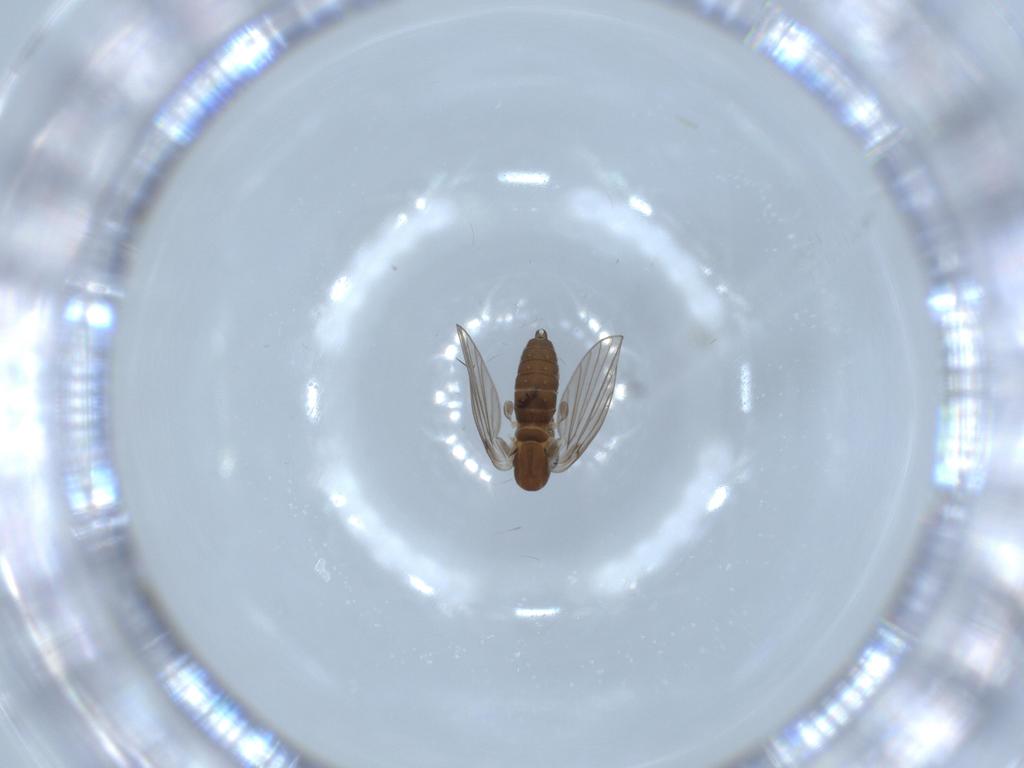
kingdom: Animalia
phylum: Arthropoda
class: Insecta
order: Diptera
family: Psychodidae
